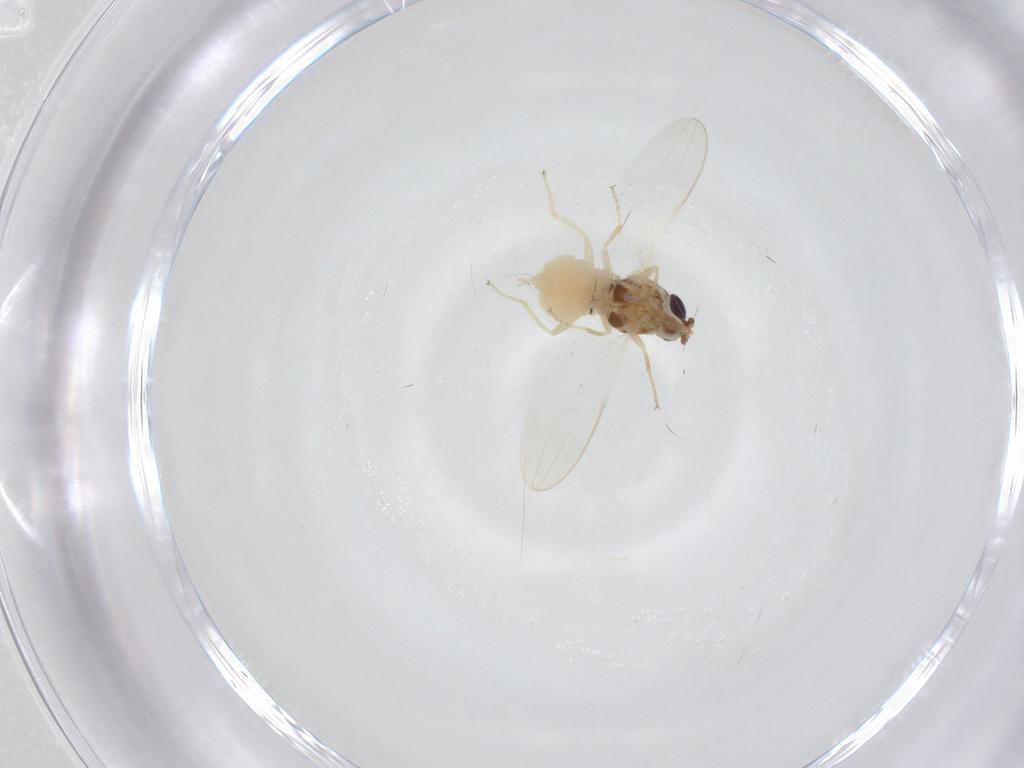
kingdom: Animalia
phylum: Arthropoda
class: Insecta
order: Diptera
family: Chloropidae
